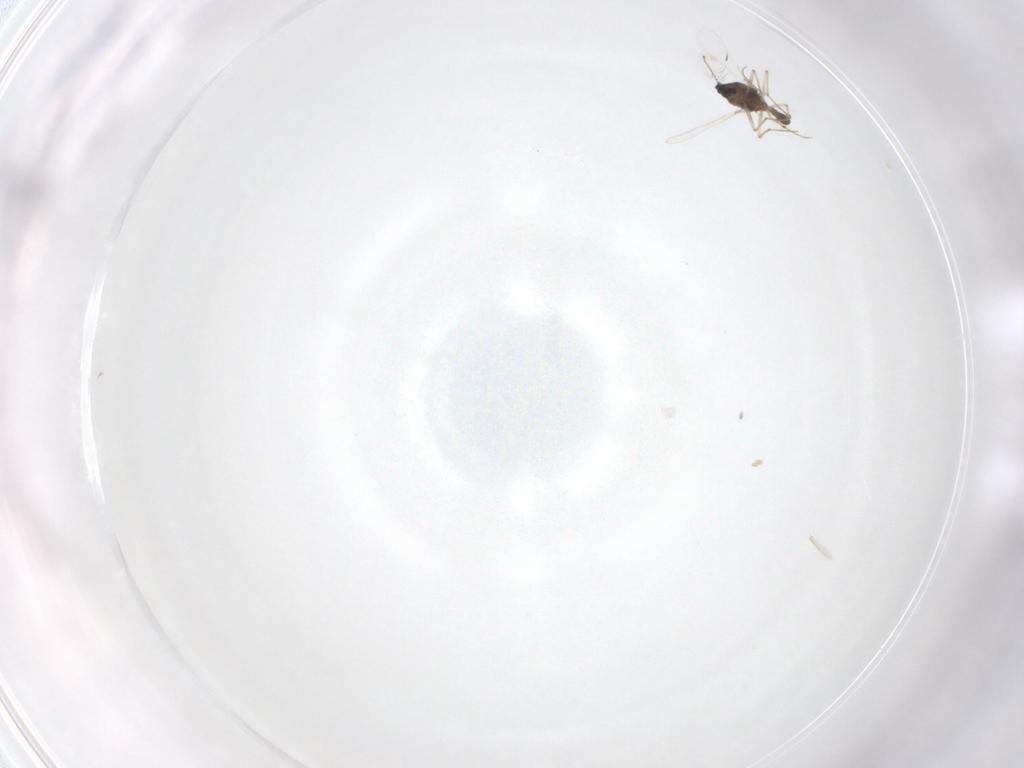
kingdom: Animalia
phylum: Arthropoda
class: Insecta
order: Diptera
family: Chironomidae
